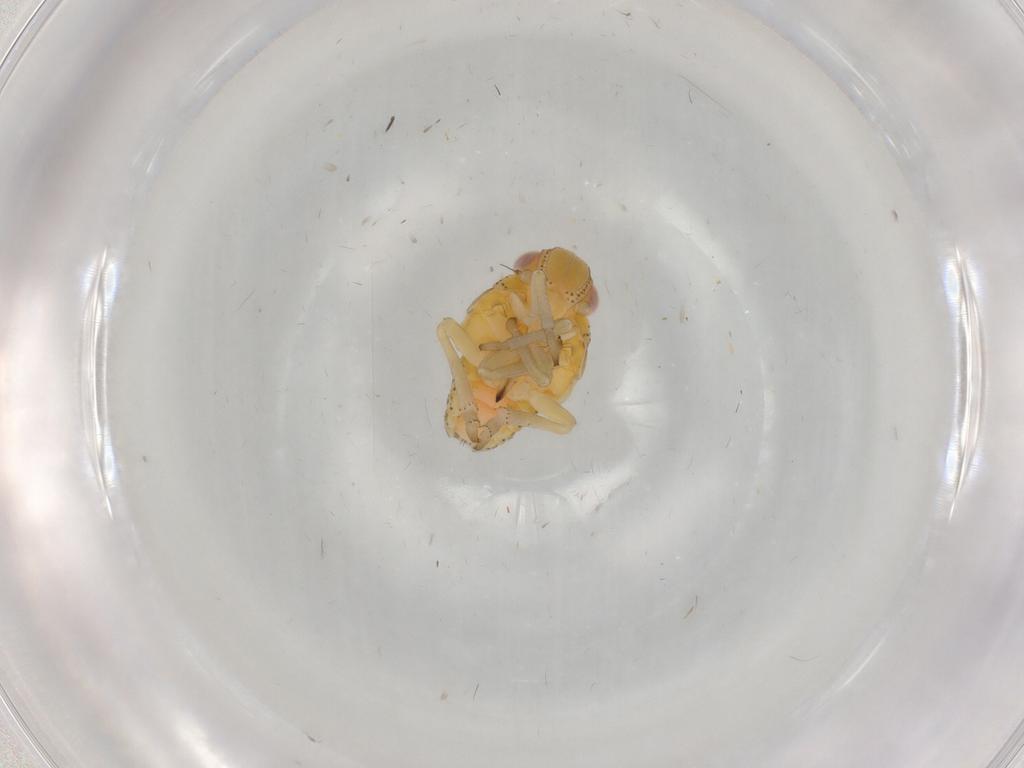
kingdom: Animalia
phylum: Arthropoda
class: Insecta
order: Hemiptera
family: Tropiduchidae
